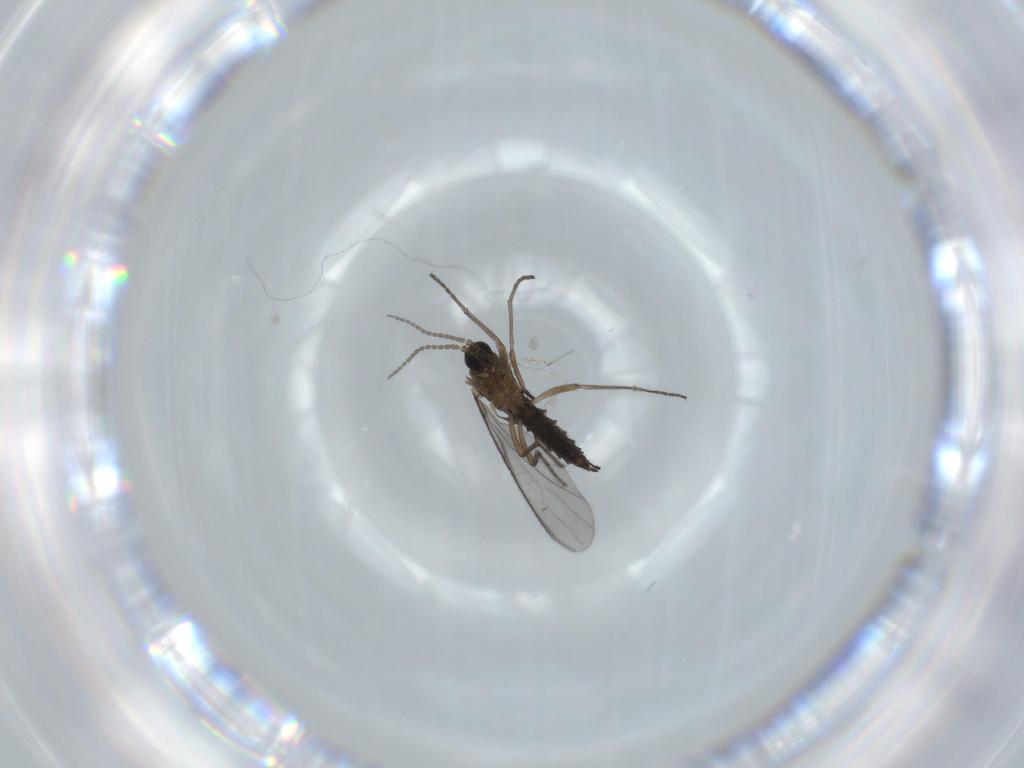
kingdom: Animalia
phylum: Arthropoda
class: Insecta
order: Diptera
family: Sciaridae
